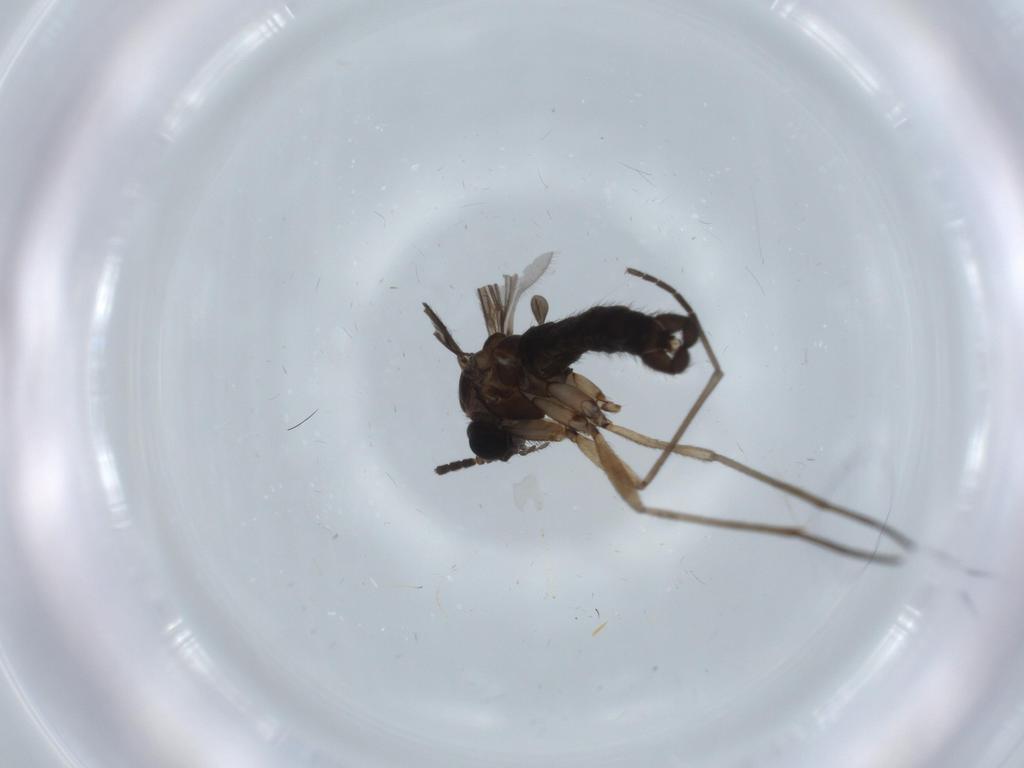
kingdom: Animalia
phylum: Arthropoda
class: Insecta
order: Diptera
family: Sciaridae
